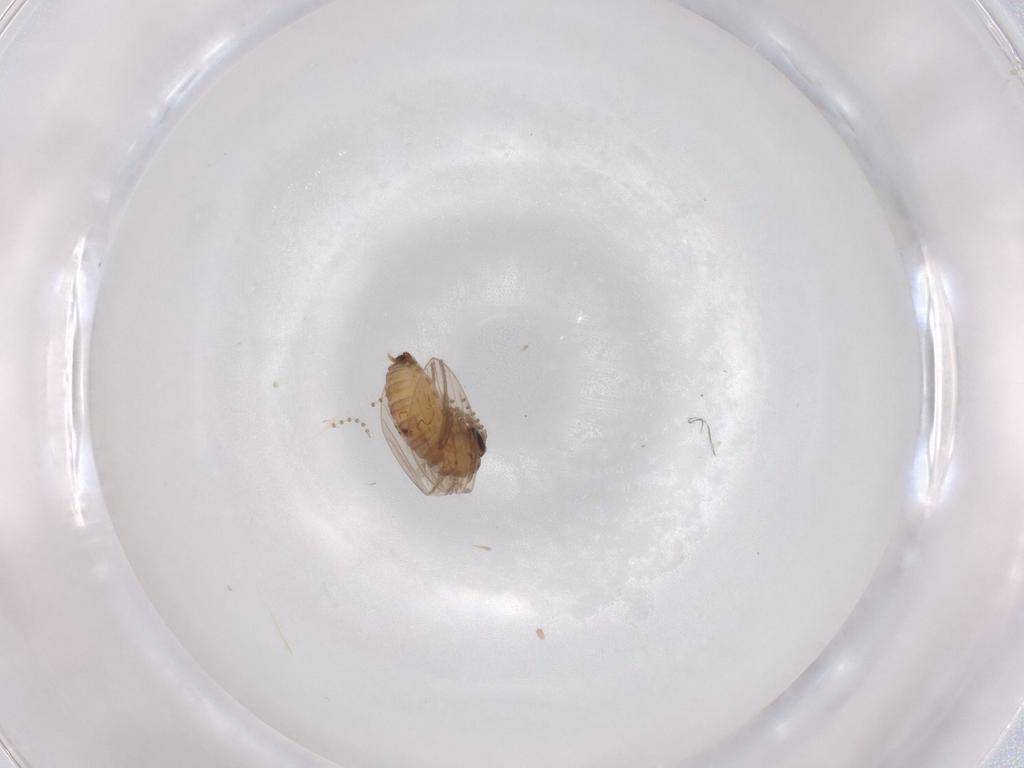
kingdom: Animalia
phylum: Arthropoda
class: Insecta
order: Diptera
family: Psychodidae
